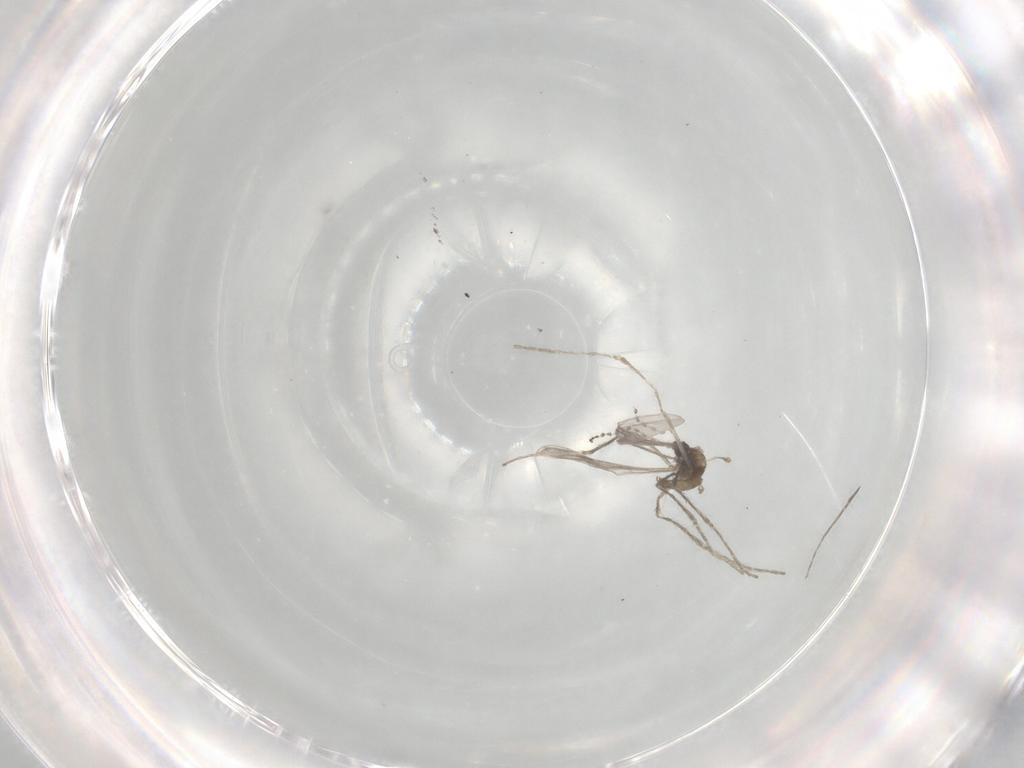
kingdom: Animalia
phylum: Arthropoda
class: Insecta
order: Diptera
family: Cecidomyiidae
